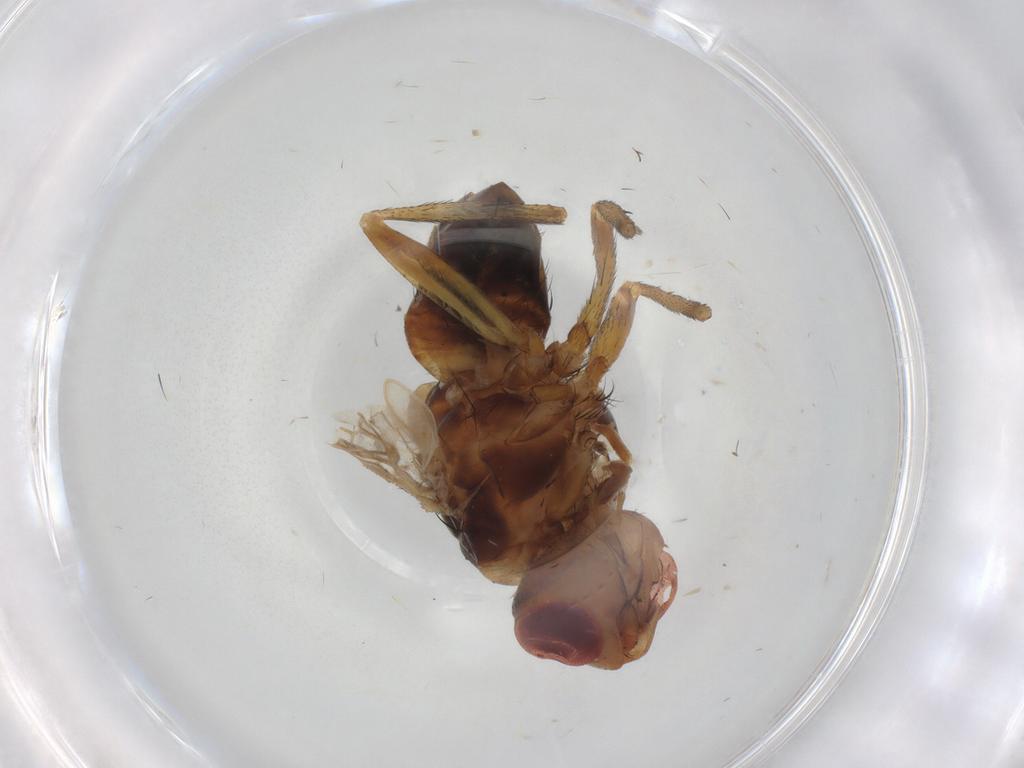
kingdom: Animalia
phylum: Arthropoda
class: Insecta
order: Diptera
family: Tachinidae
